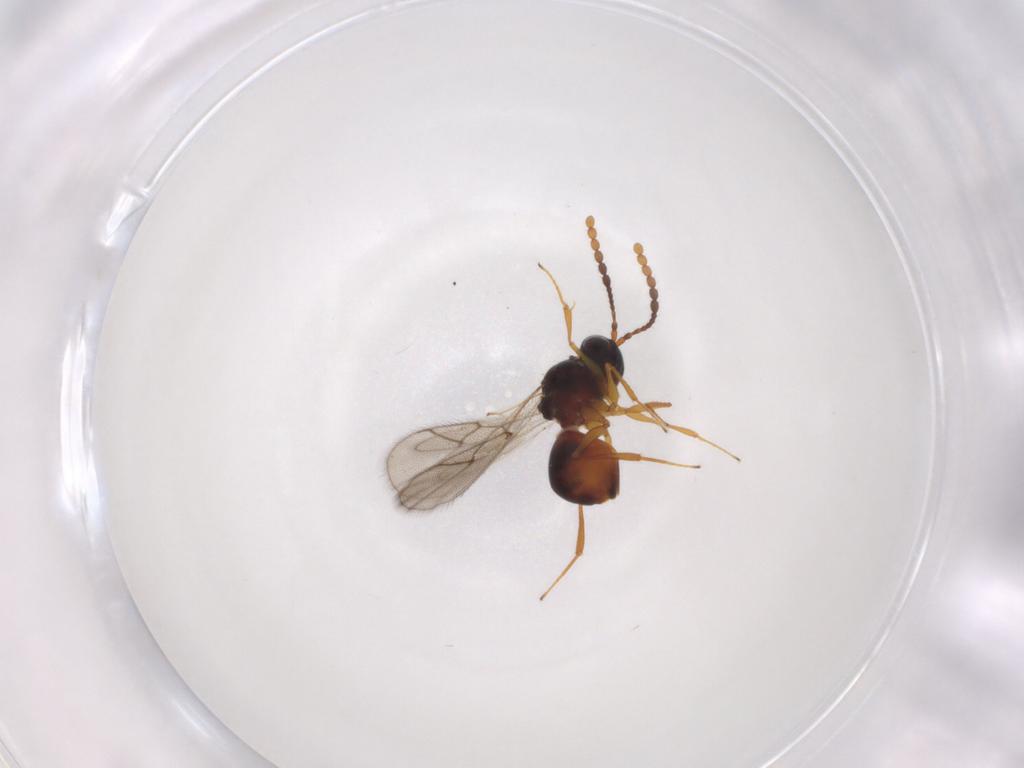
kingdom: Animalia
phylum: Arthropoda
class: Insecta
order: Hymenoptera
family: Figitidae
